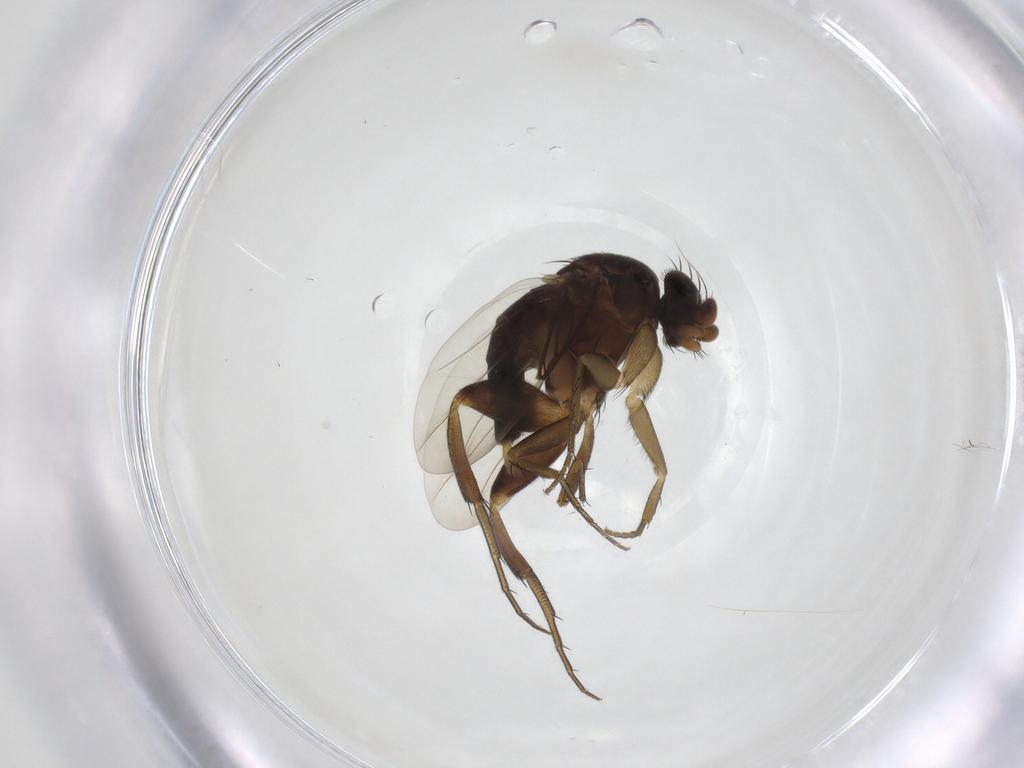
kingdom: Animalia
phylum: Arthropoda
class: Insecta
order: Diptera
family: Phoridae
